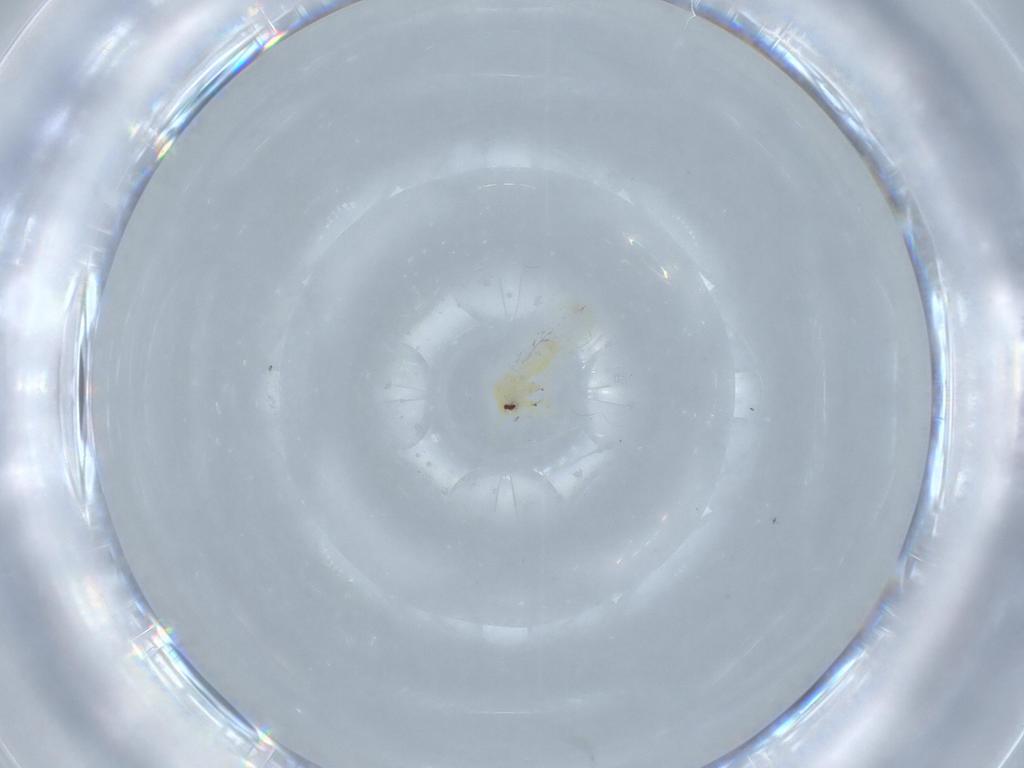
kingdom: Animalia
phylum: Arthropoda
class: Insecta
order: Hemiptera
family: Aleyrodidae
